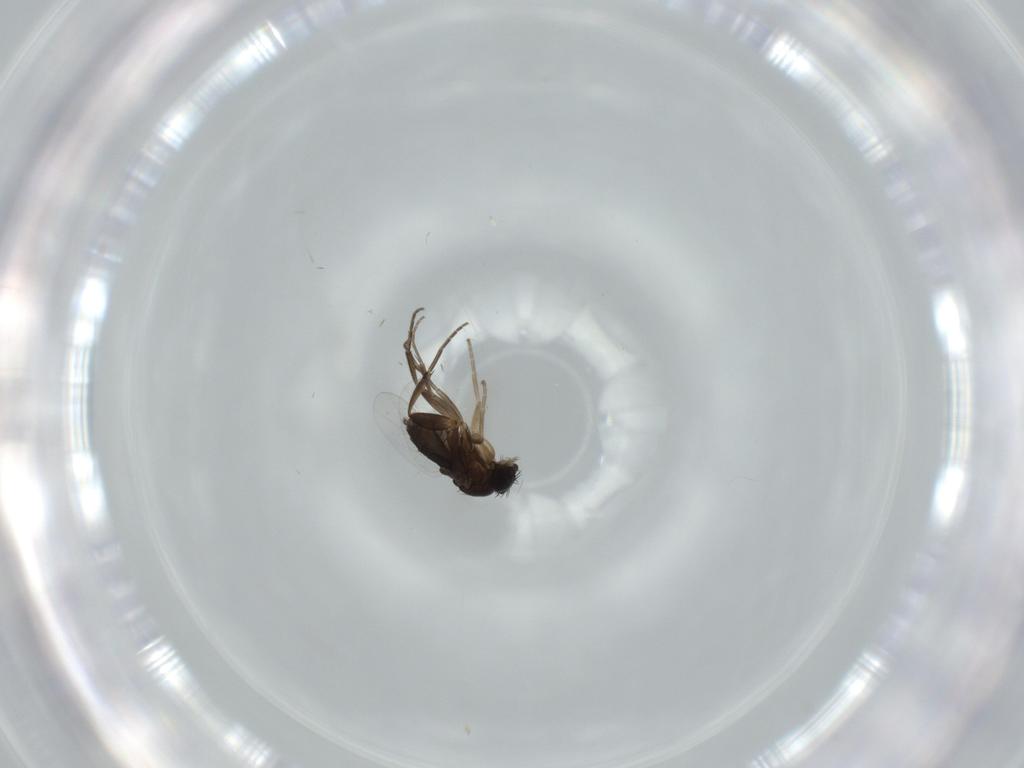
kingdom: Animalia
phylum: Arthropoda
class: Insecta
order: Diptera
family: Phoridae
